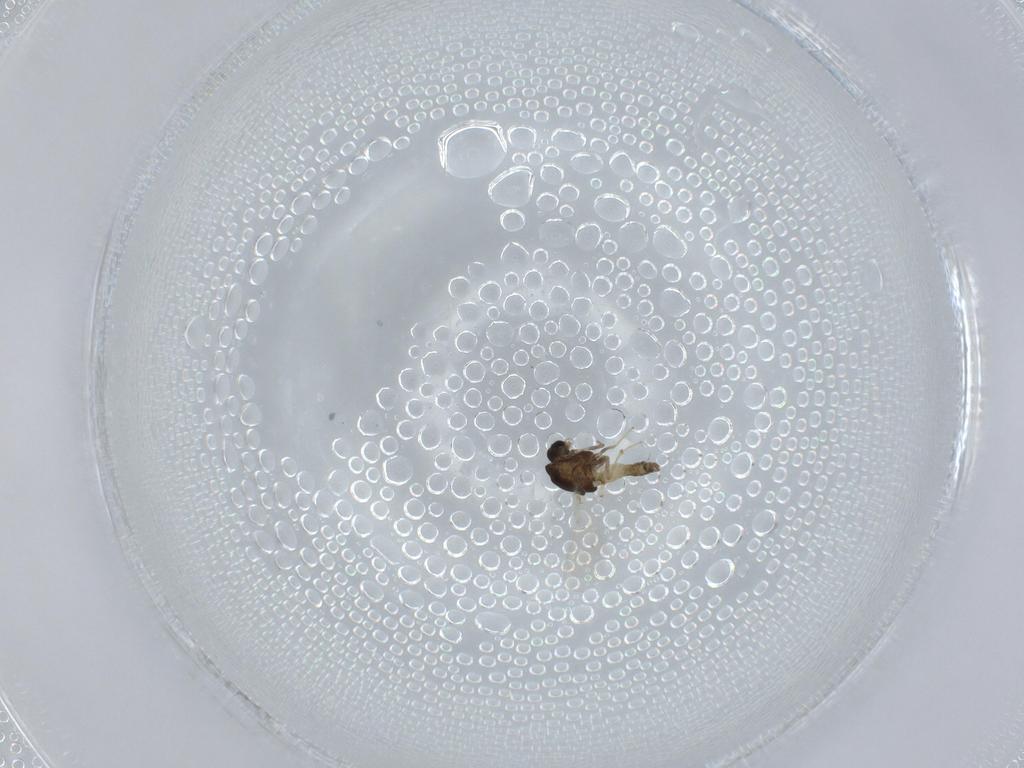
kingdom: Animalia
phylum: Arthropoda
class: Insecta
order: Diptera
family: Chironomidae
